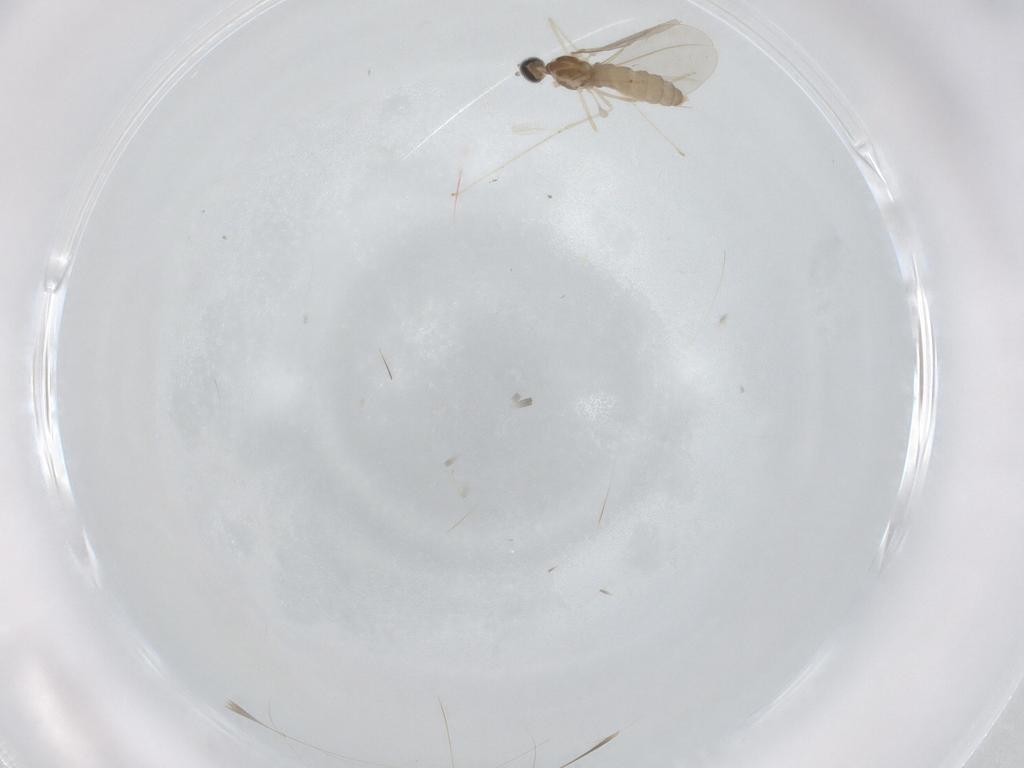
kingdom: Animalia
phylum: Arthropoda
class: Insecta
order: Diptera
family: Cecidomyiidae
